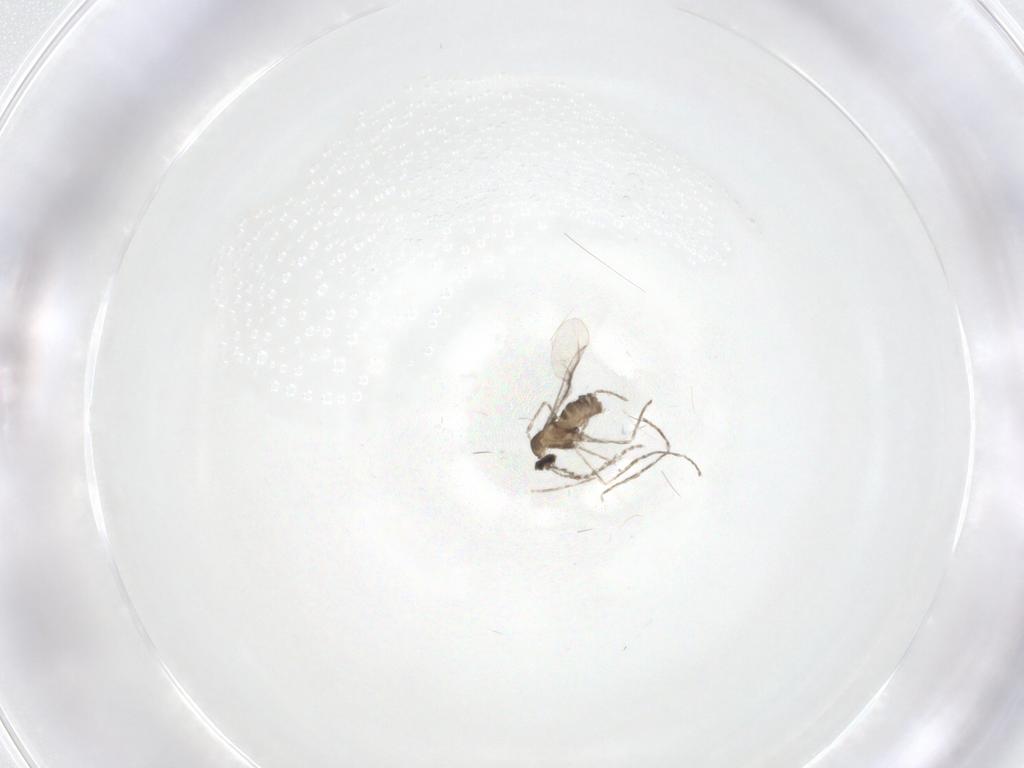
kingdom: Animalia
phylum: Arthropoda
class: Insecta
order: Diptera
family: Cecidomyiidae
